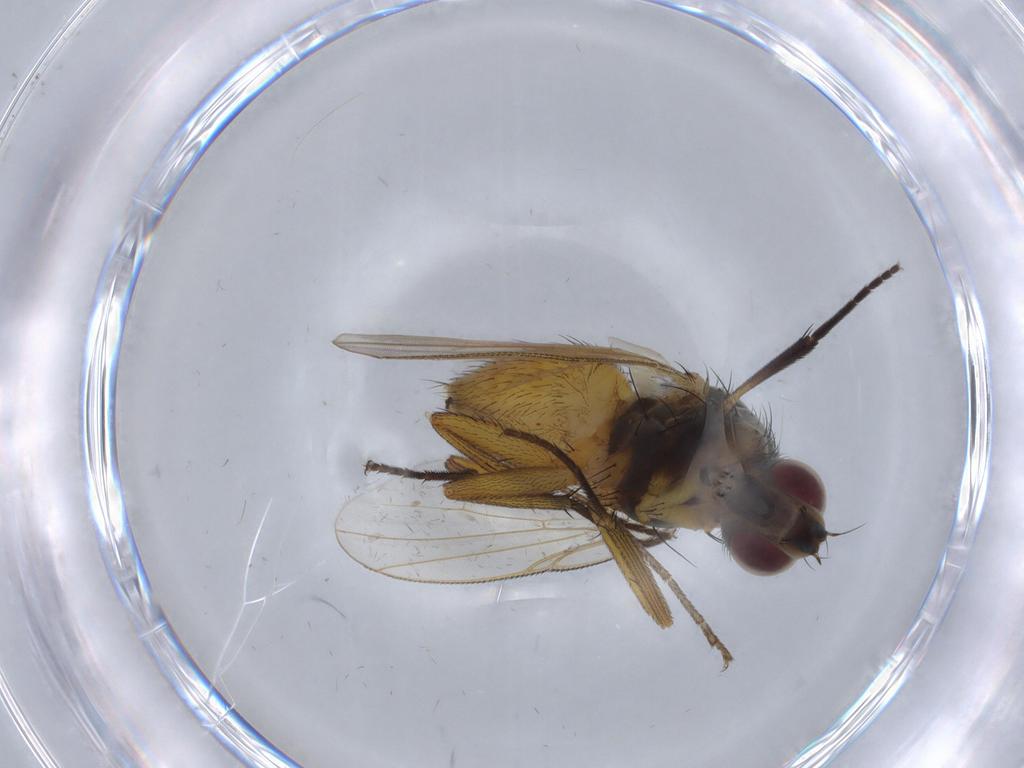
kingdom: Animalia
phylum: Arthropoda
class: Insecta
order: Diptera
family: Muscidae
